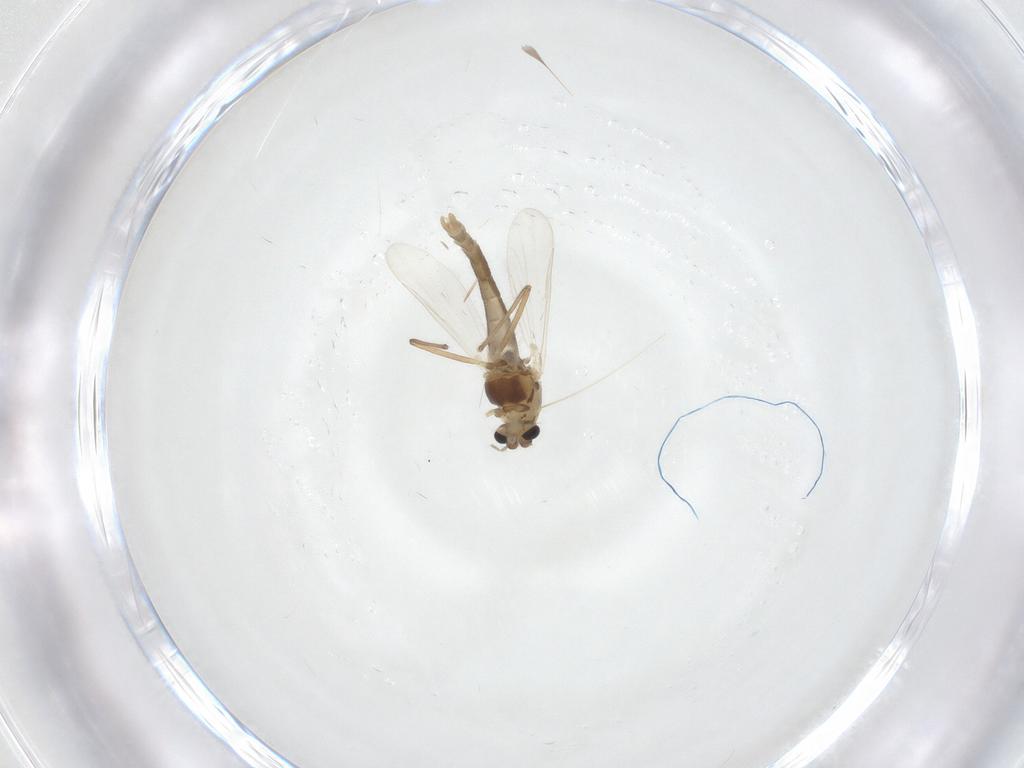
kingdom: Animalia
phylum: Arthropoda
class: Insecta
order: Diptera
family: Chironomidae
